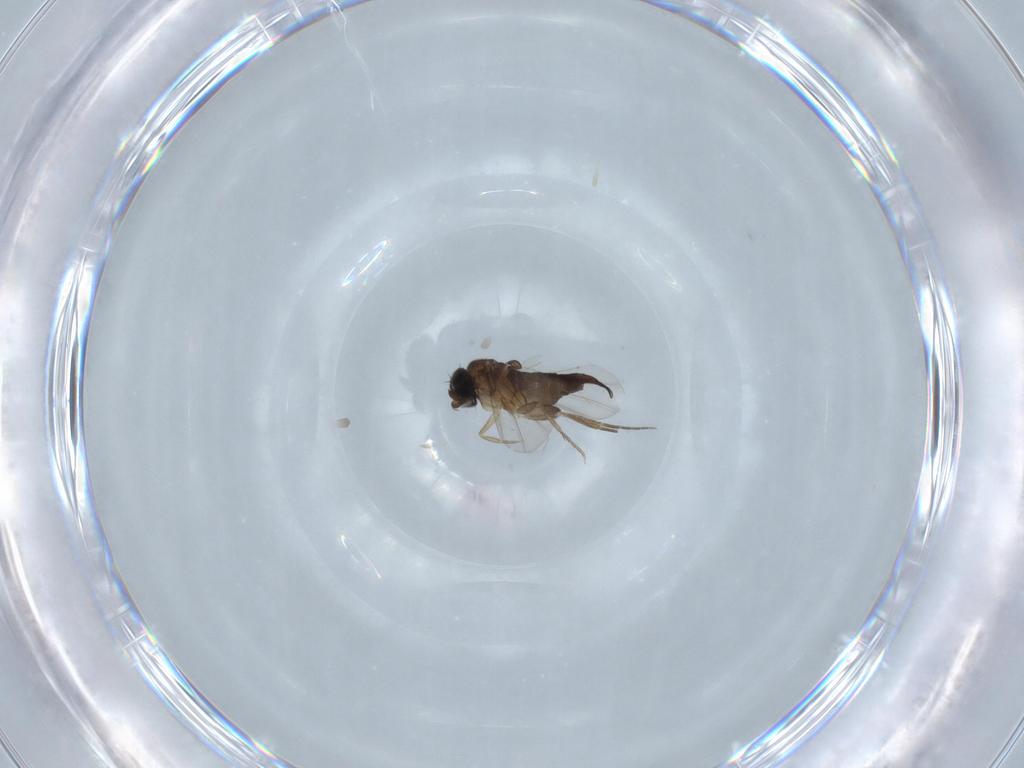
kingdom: Animalia
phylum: Arthropoda
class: Insecta
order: Diptera
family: Phoridae
